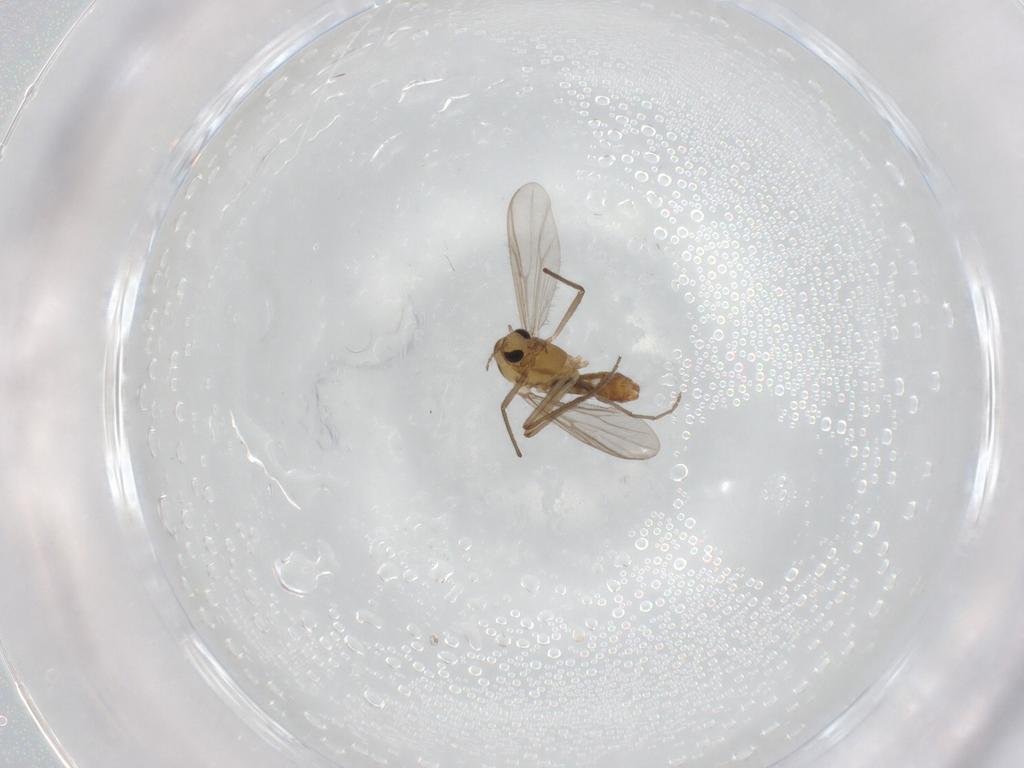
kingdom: Animalia
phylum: Arthropoda
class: Insecta
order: Diptera
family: Chironomidae
